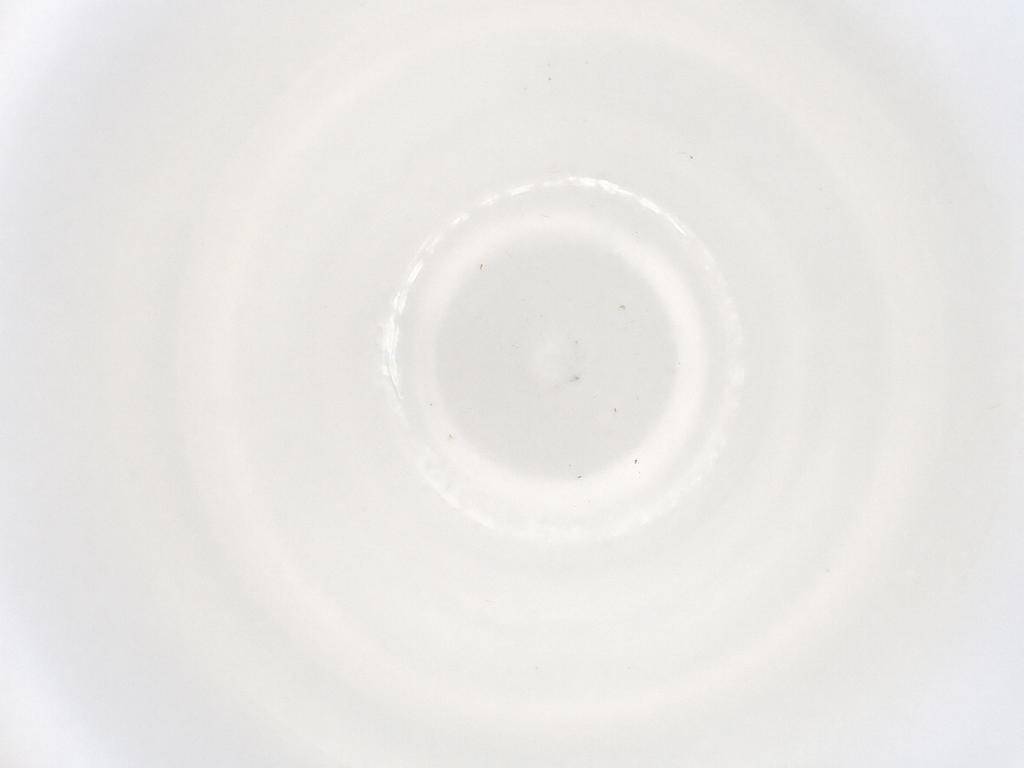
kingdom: Animalia
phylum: Arthropoda
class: Insecta
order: Diptera
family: Psychodidae
